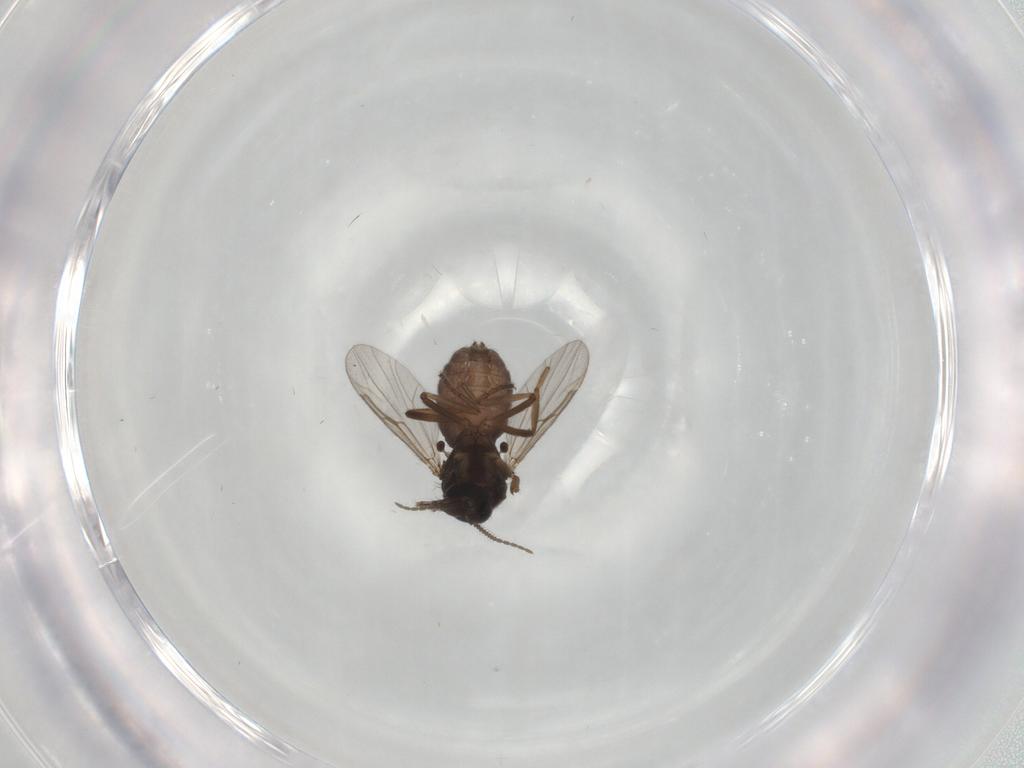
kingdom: Animalia
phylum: Arthropoda
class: Insecta
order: Diptera
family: Ceratopogonidae
